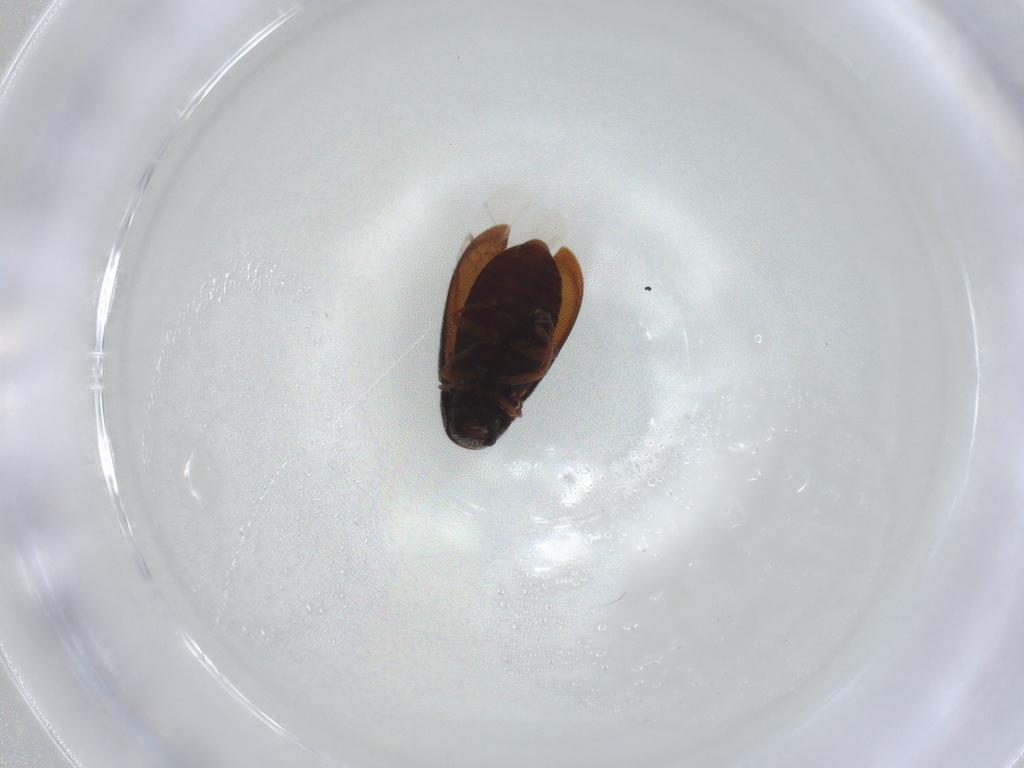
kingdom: Animalia
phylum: Arthropoda
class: Insecta
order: Coleoptera
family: Mordellidae
